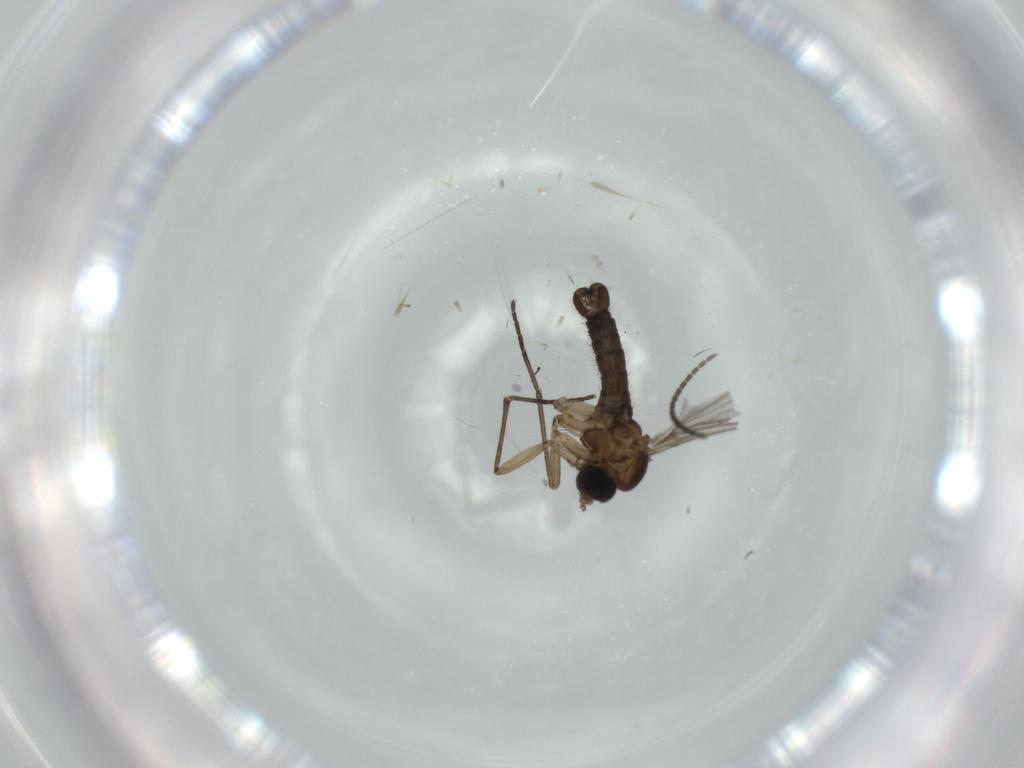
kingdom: Animalia
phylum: Arthropoda
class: Insecta
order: Diptera
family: Sciaridae
